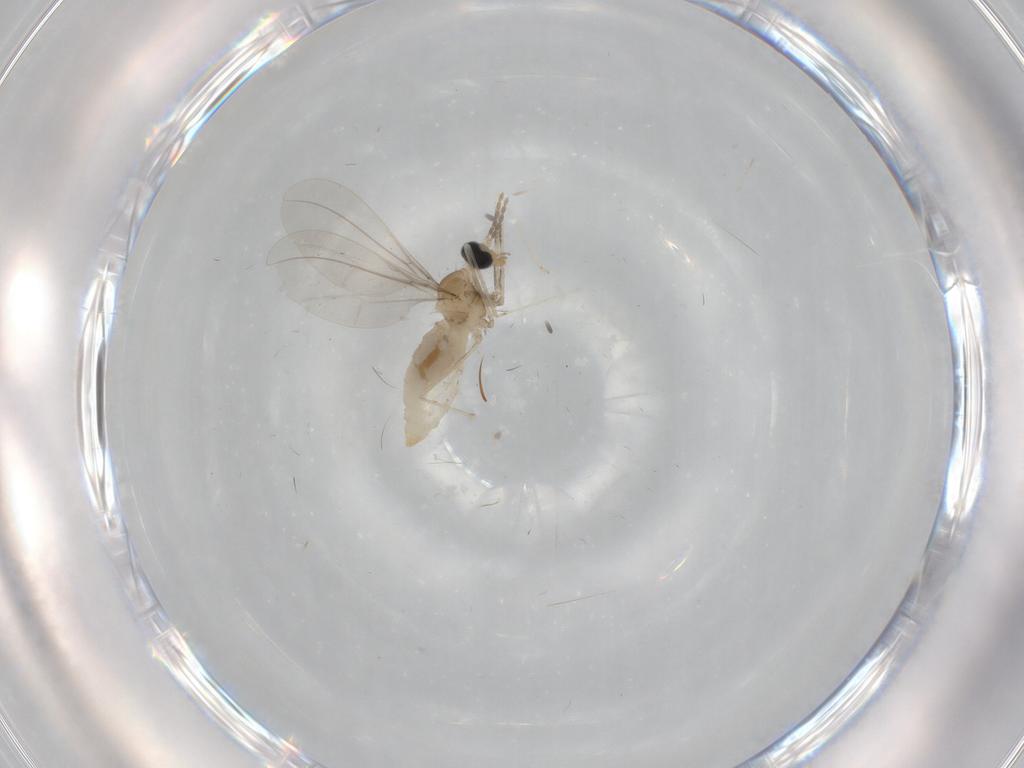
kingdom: Animalia
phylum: Arthropoda
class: Insecta
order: Diptera
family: Cecidomyiidae
